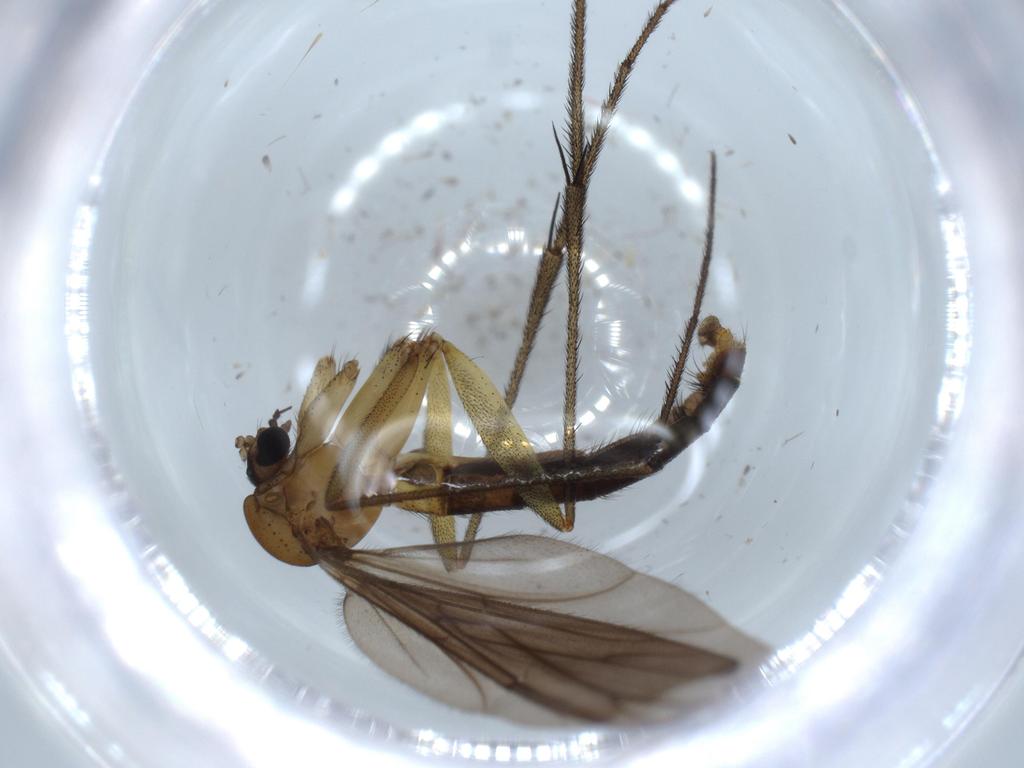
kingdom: Animalia
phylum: Arthropoda
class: Insecta
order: Diptera
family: Ditomyiidae
